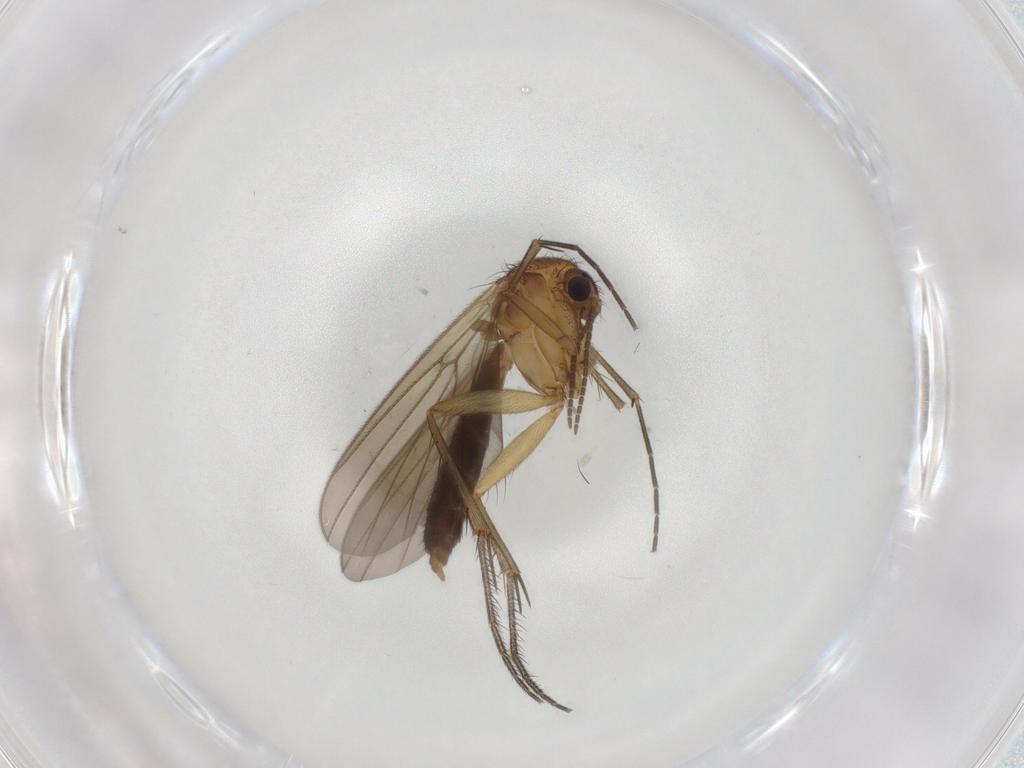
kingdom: Animalia
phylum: Arthropoda
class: Insecta
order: Diptera
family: Mycetophilidae
